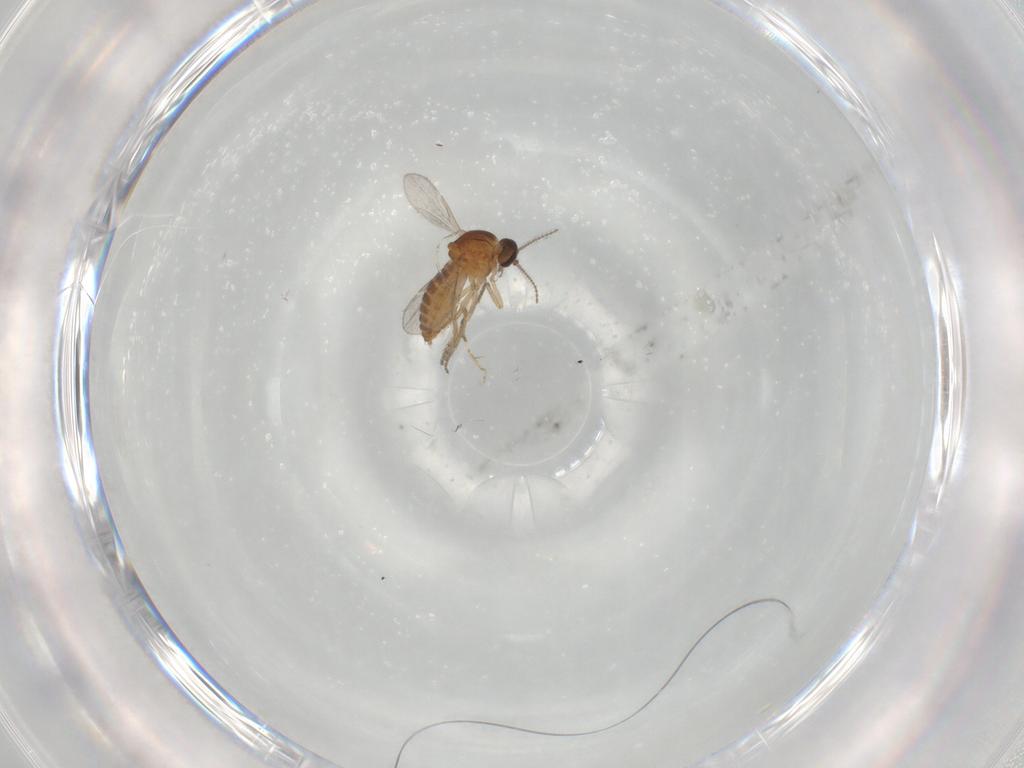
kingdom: Animalia
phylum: Arthropoda
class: Insecta
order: Diptera
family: Ceratopogonidae
